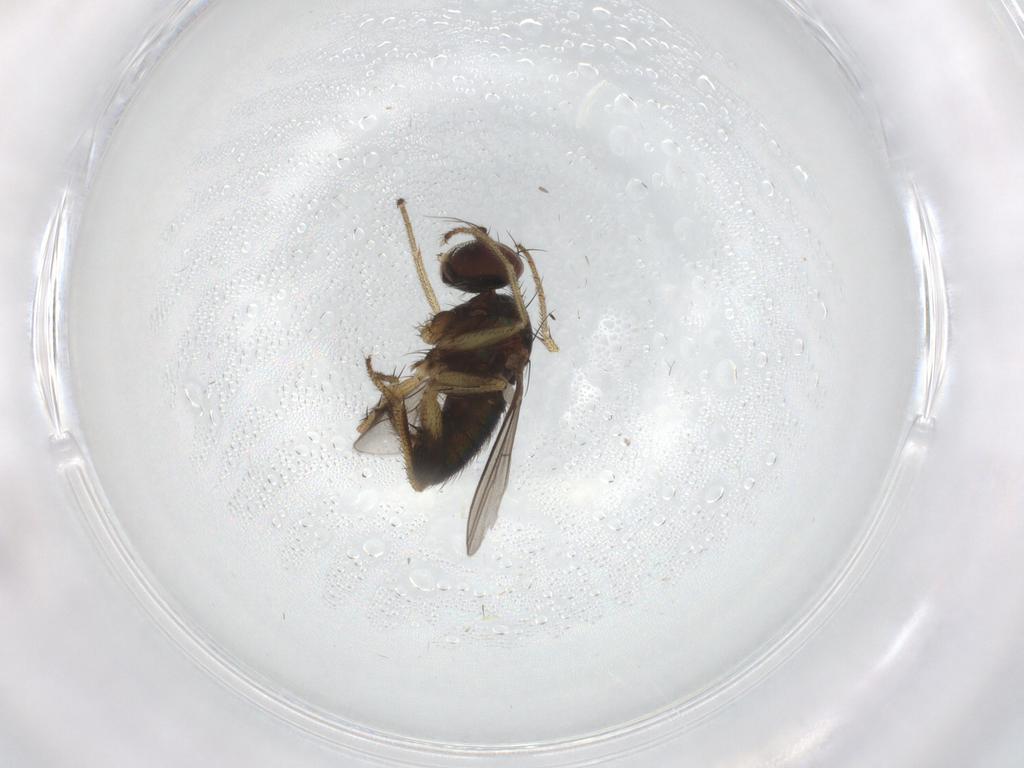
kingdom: Animalia
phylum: Arthropoda
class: Insecta
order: Diptera
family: Dolichopodidae
